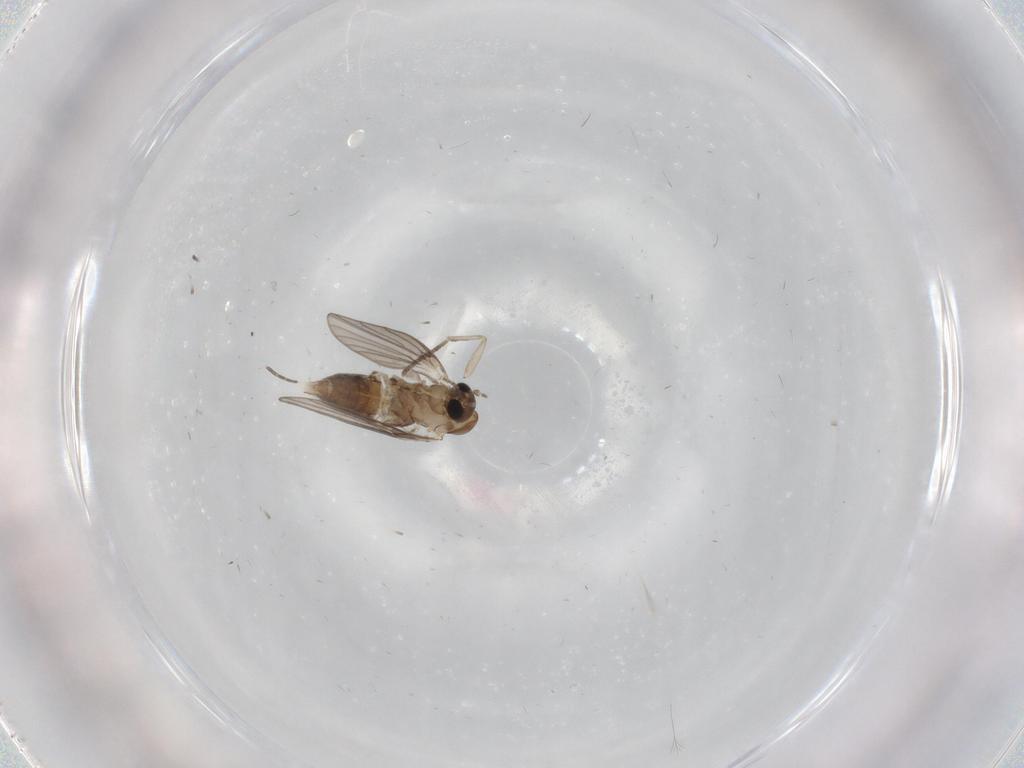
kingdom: Animalia
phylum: Arthropoda
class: Insecta
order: Diptera
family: Psychodidae
